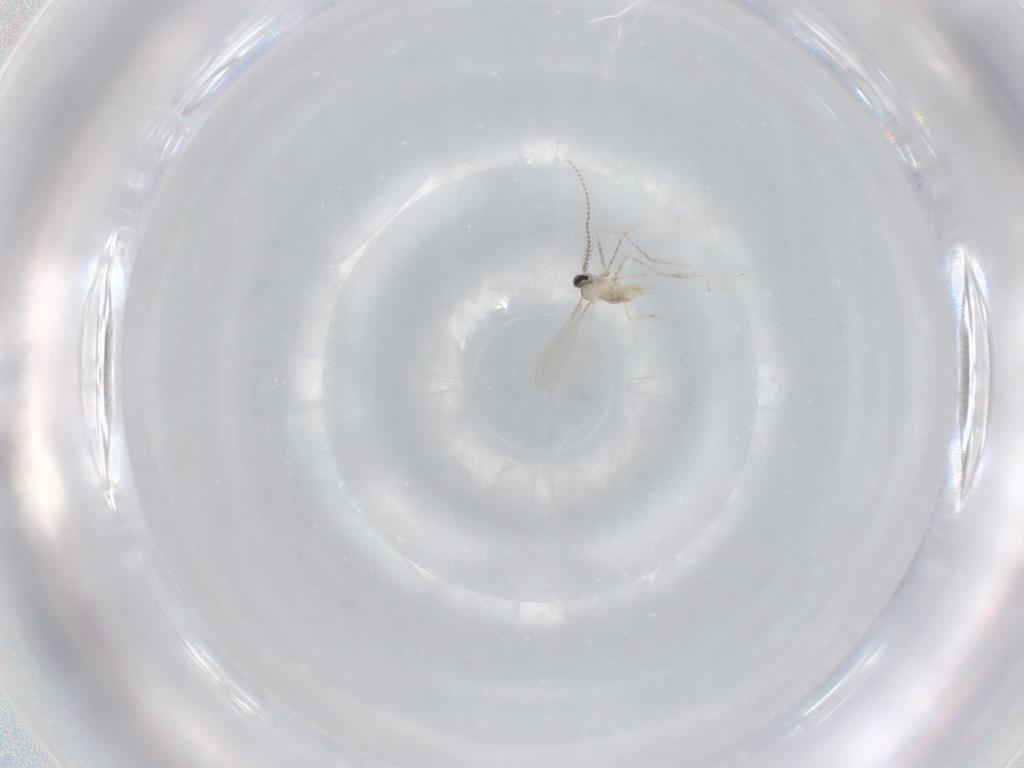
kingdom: Animalia
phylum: Arthropoda
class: Insecta
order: Diptera
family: Cecidomyiidae
